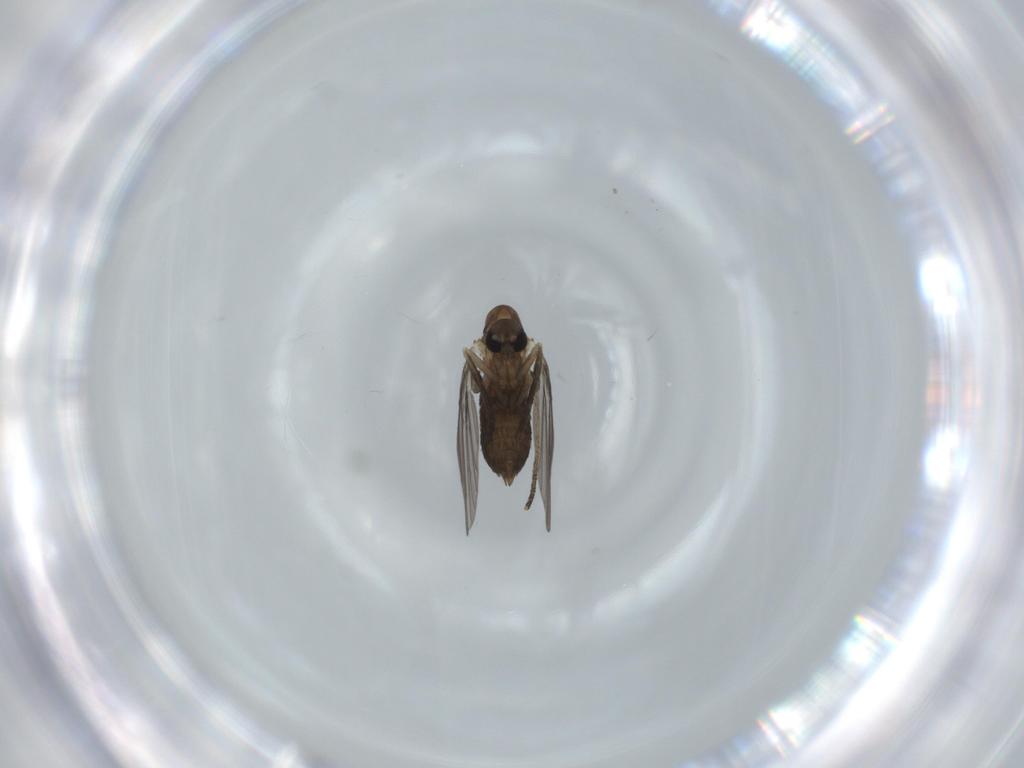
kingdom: Animalia
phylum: Arthropoda
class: Insecta
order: Diptera
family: Psychodidae
